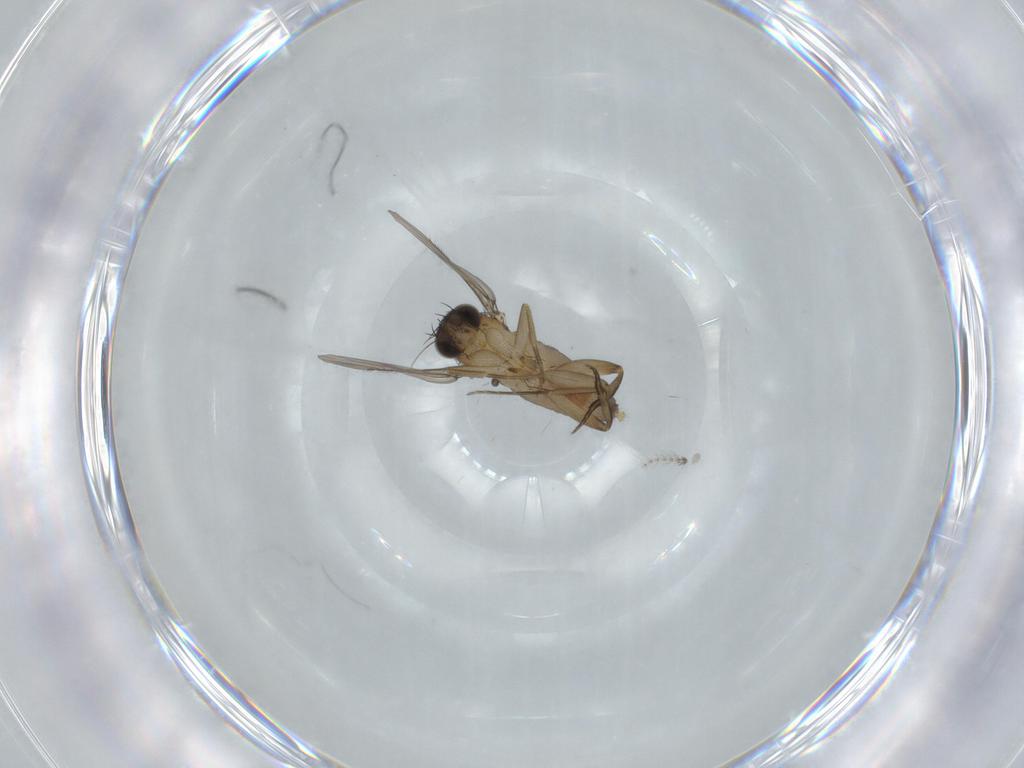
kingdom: Animalia
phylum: Arthropoda
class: Insecta
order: Diptera
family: Psychodidae
